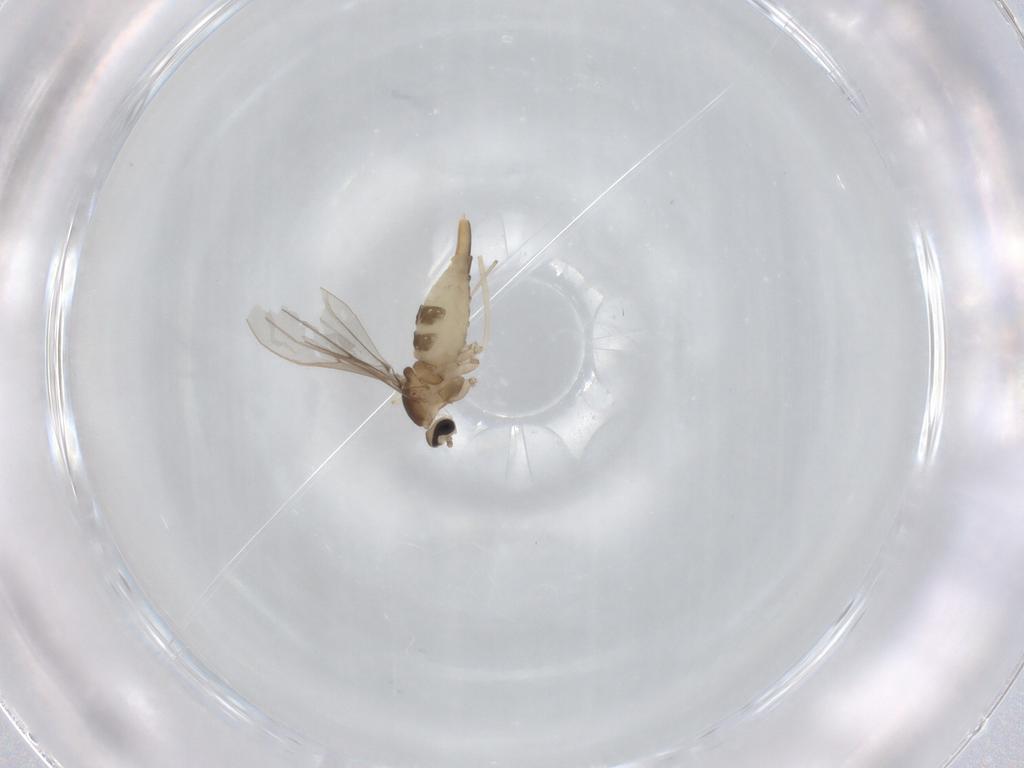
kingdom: Animalia
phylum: Arthropoda
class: Insecta
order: Diptera
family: Cecidomyiidae
